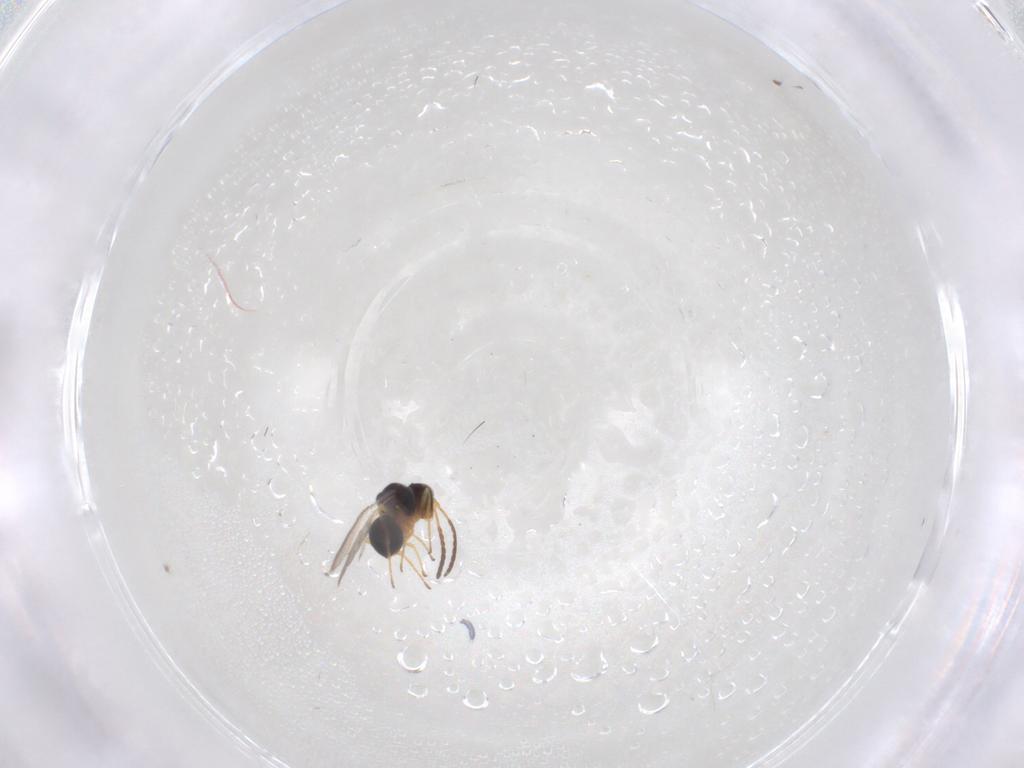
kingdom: Animalia
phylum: Arthropoda
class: Insecta
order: Hymenoptera
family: Figitidae
